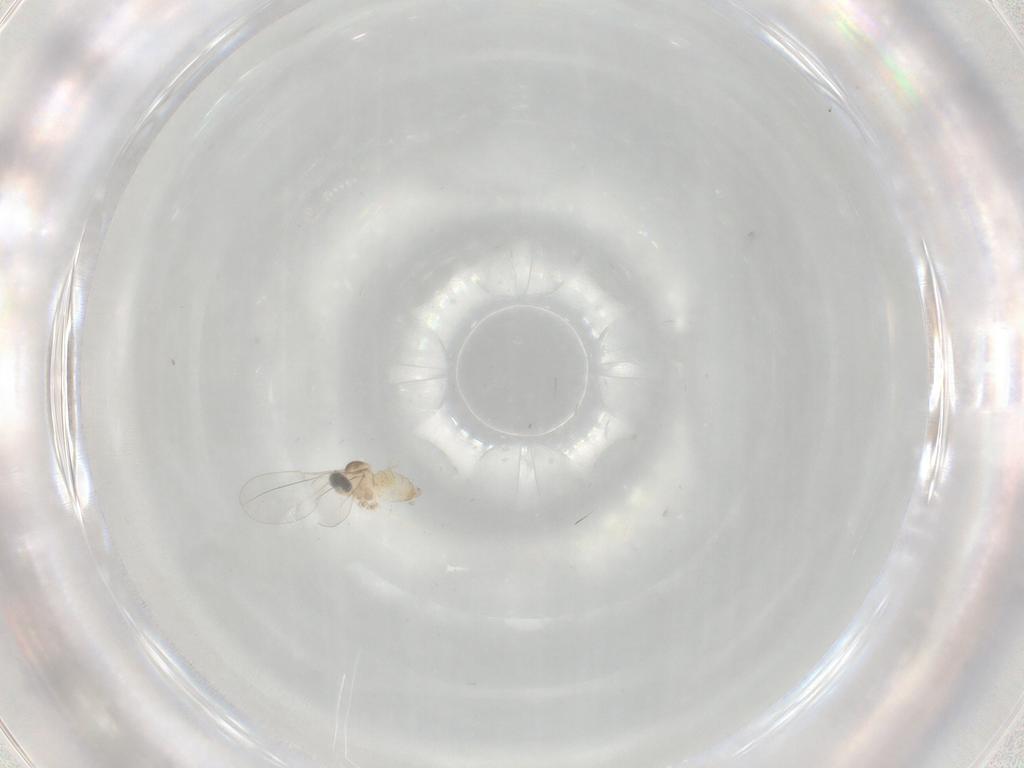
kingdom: Animalia
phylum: Arthropoda
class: Insecta
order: Diptera
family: Cecidomyiidae
